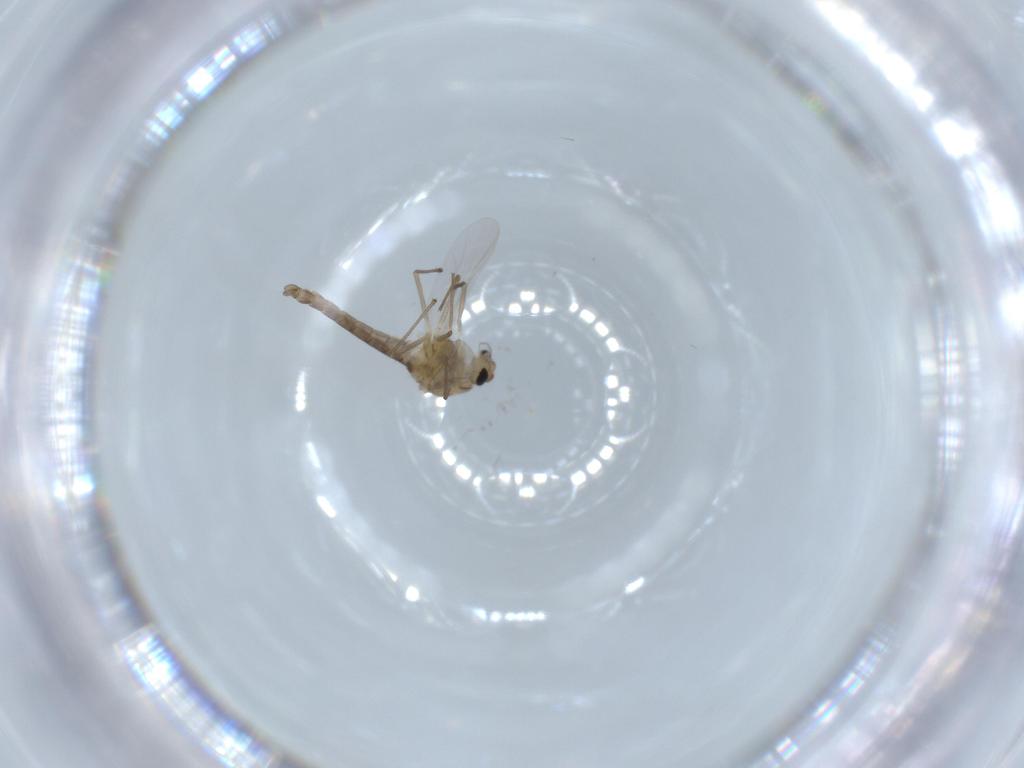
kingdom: Animalia
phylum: Arthropoda
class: Insecta
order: Diptera
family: Chironomidae
